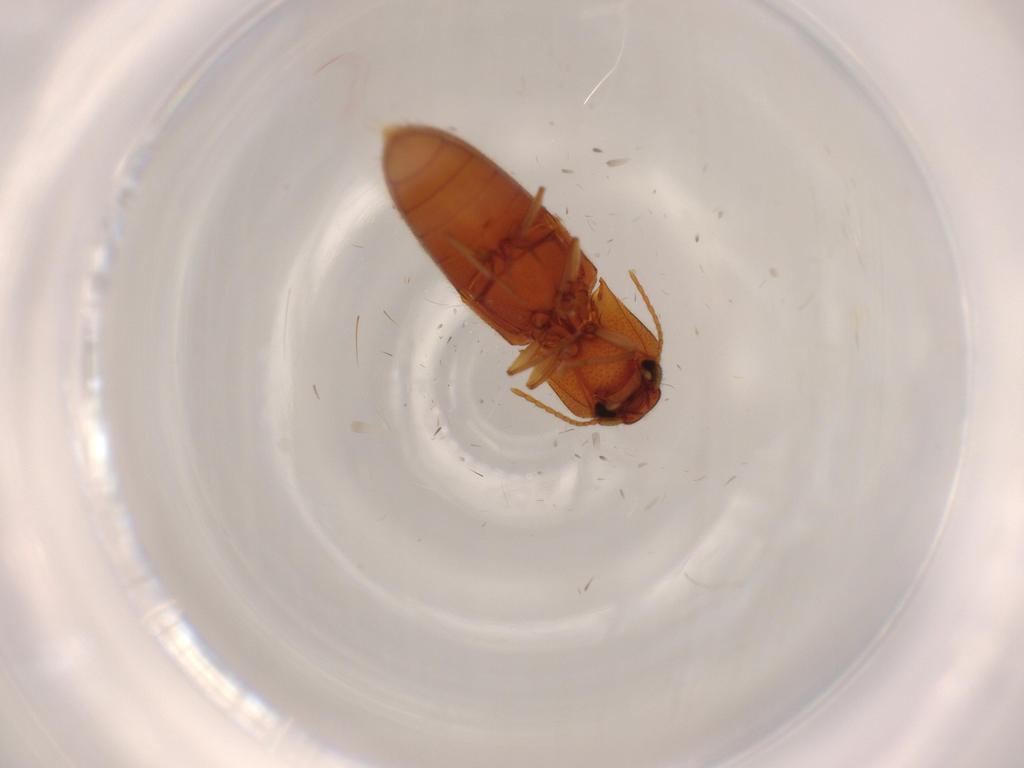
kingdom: Animalia
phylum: Arthropoda
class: Insecta
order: Coleoptera
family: Elateridae
